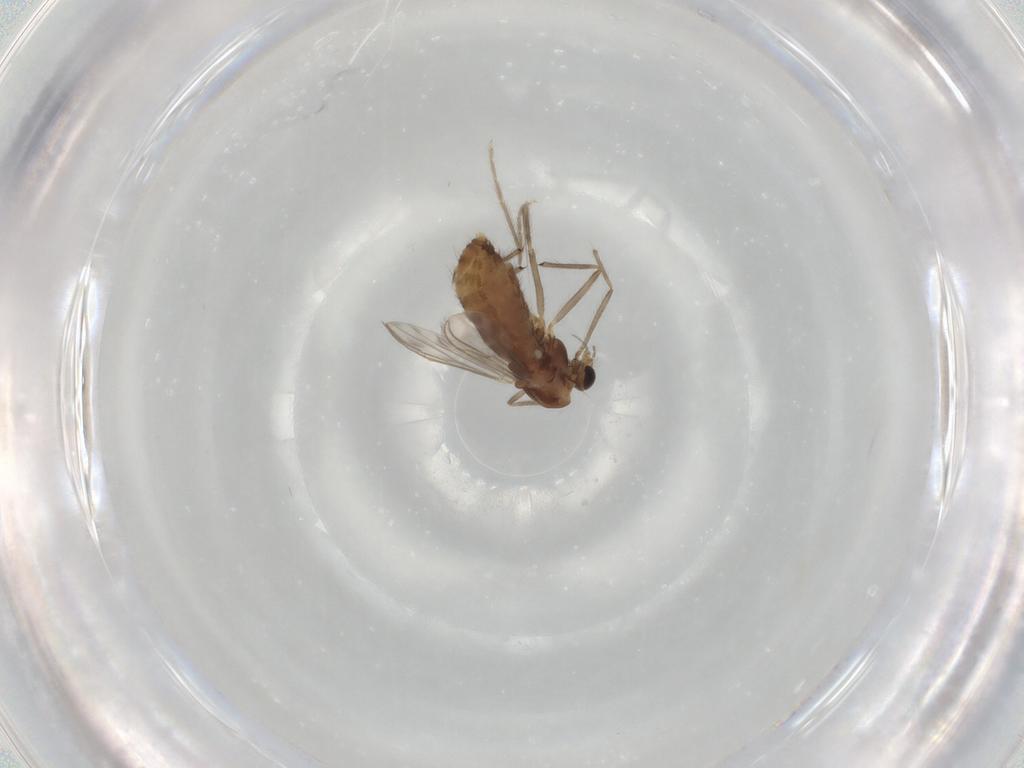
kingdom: Animalia
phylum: Arthropoda
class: Insecta
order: Diptera
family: Chironomidae
